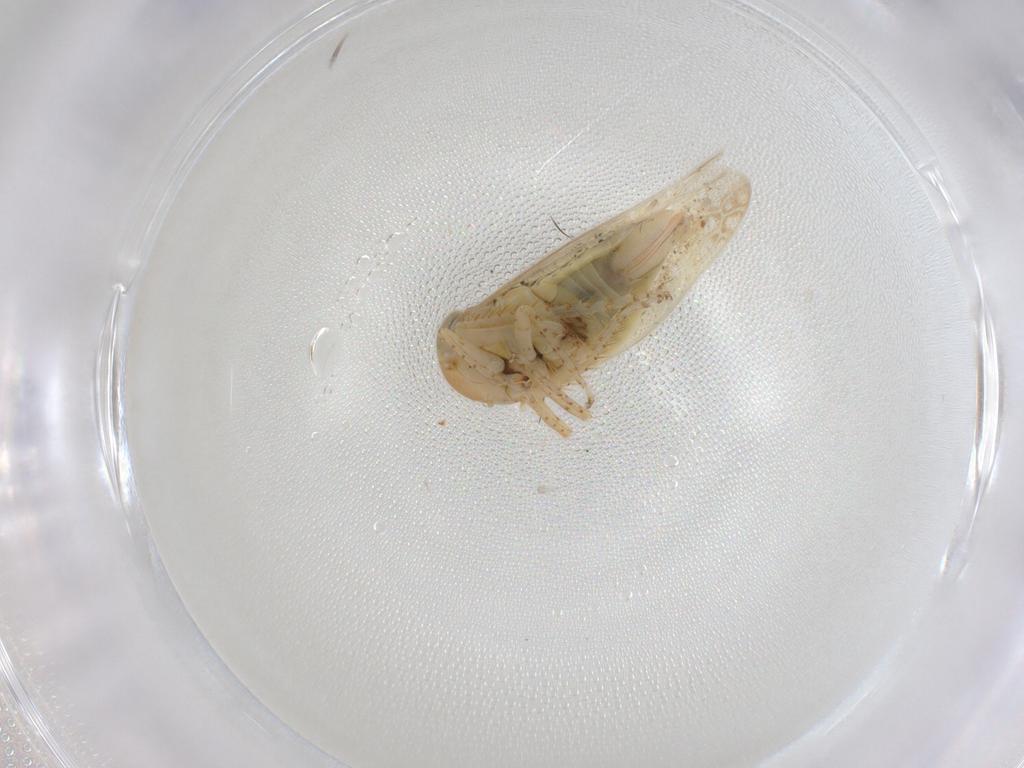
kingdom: Animalia
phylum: Arthropoda
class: Insecta
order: Hemiptera
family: Cicadellidae
